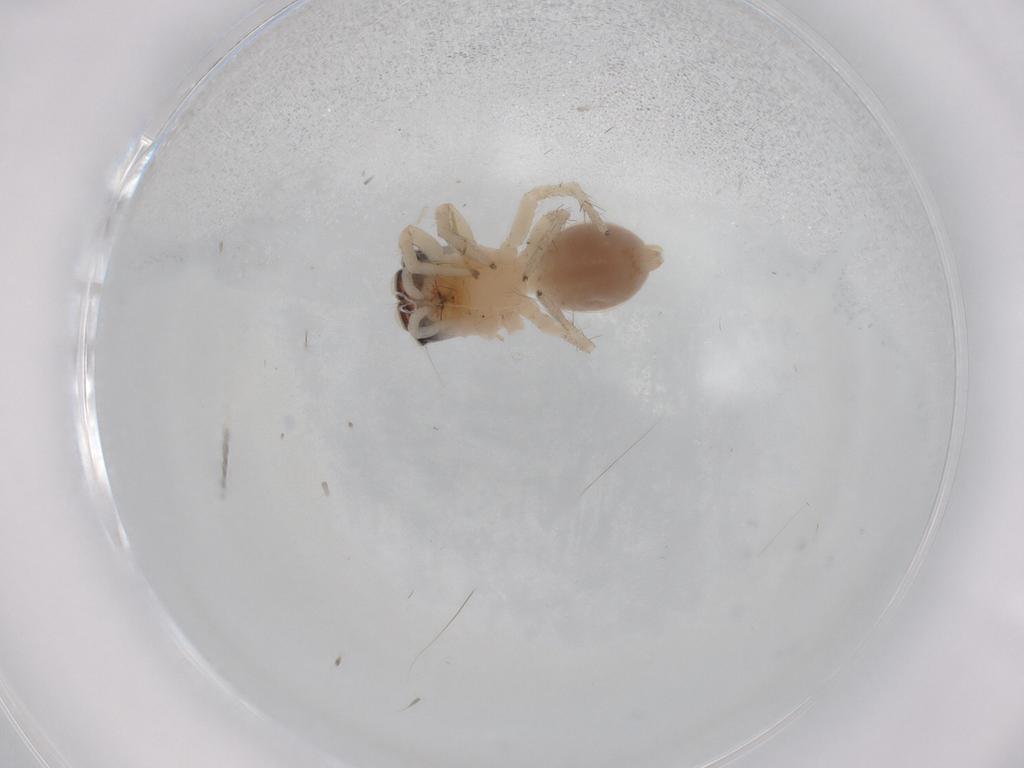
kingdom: Animalia
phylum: Arthropoda
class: Arachnida
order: Araneae
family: Salticidae
